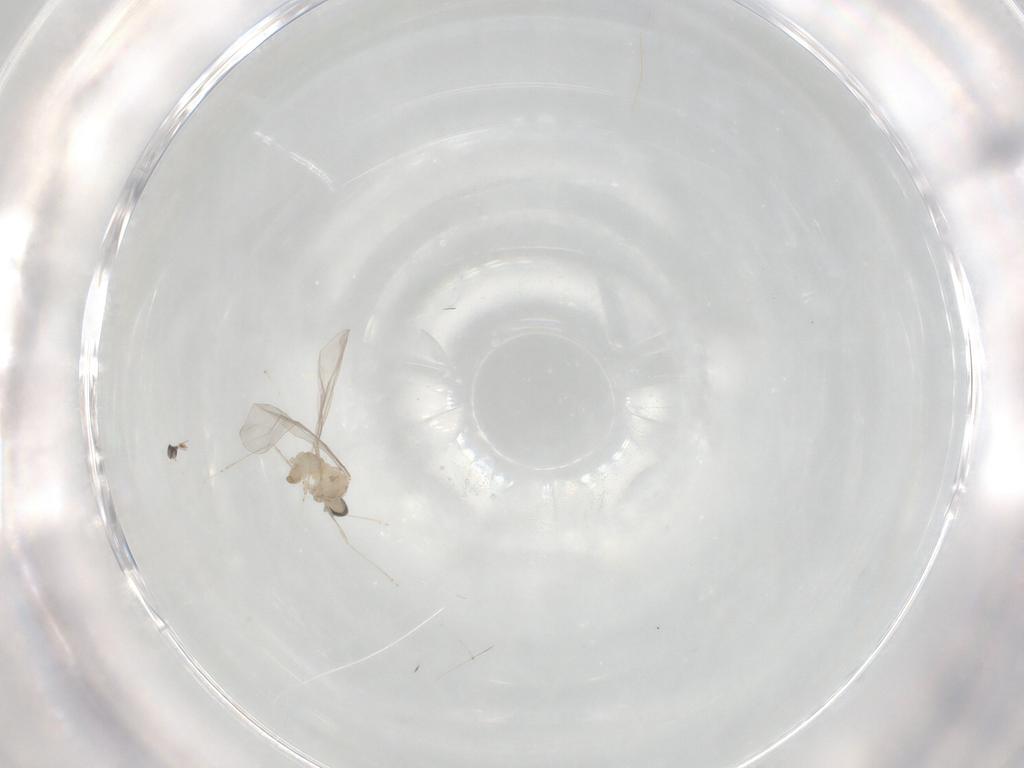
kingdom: Animalia
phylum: Arthropoda
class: Insecta
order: Diptera
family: Cecidomyiidae
